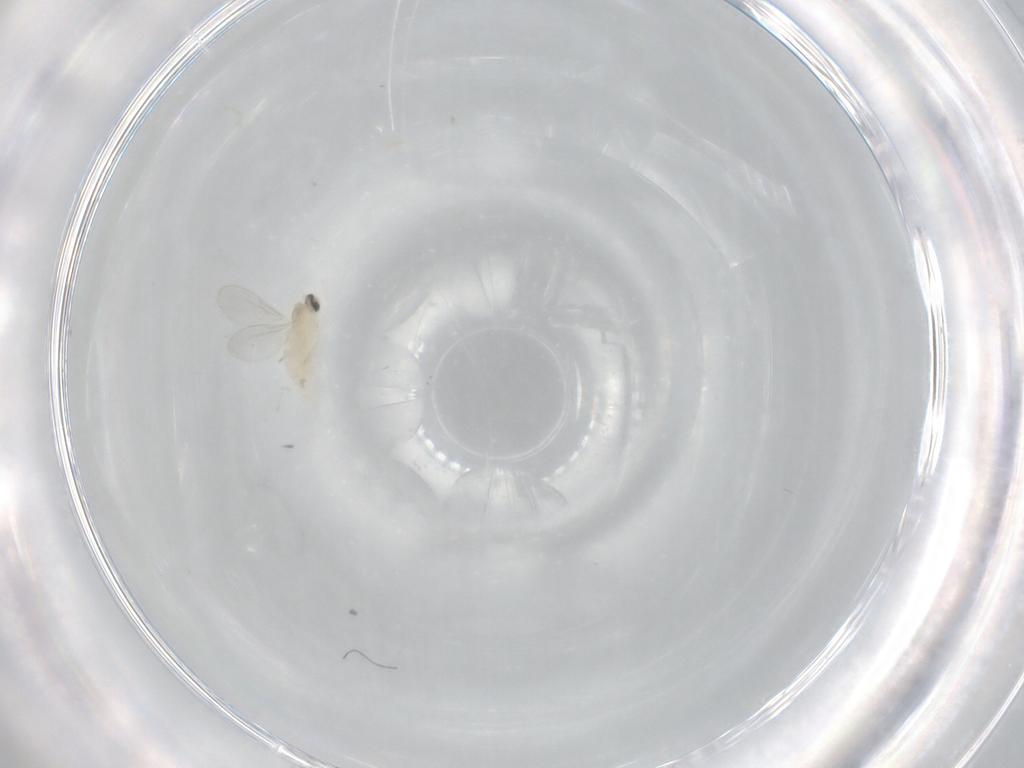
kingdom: Animalia
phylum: Arthropoda
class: Insecta
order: Diptera
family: Cecidomyiidae
